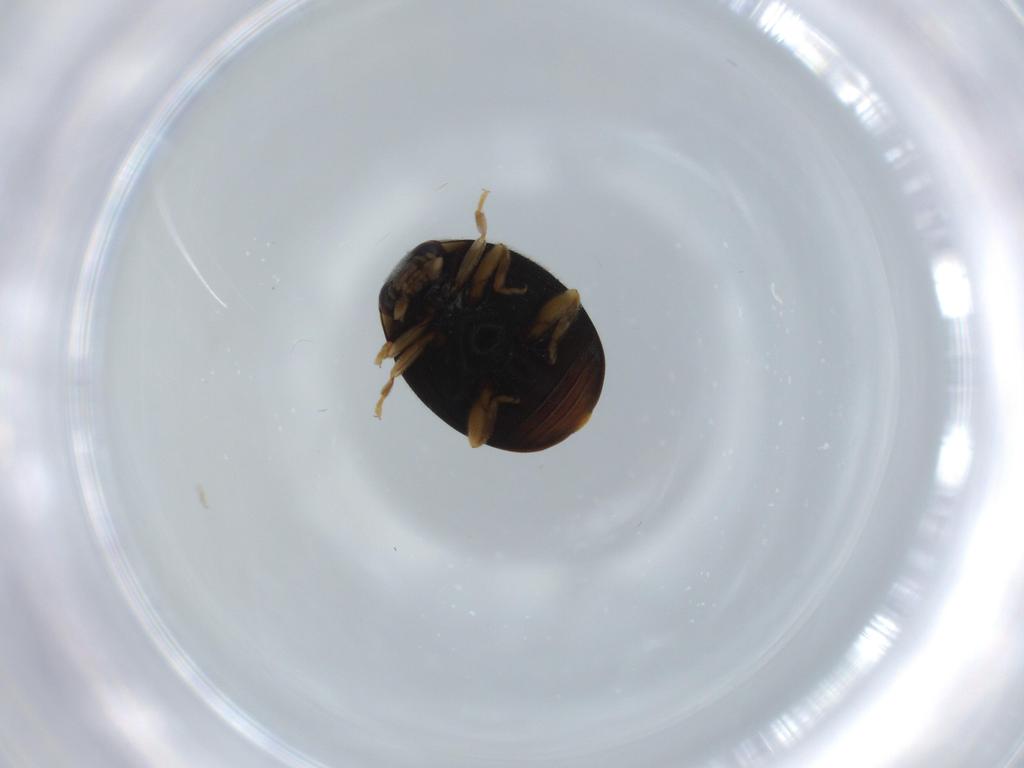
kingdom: Animalia
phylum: Arthropoda
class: Insecta
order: Coleoptera
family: Coccinellidae
